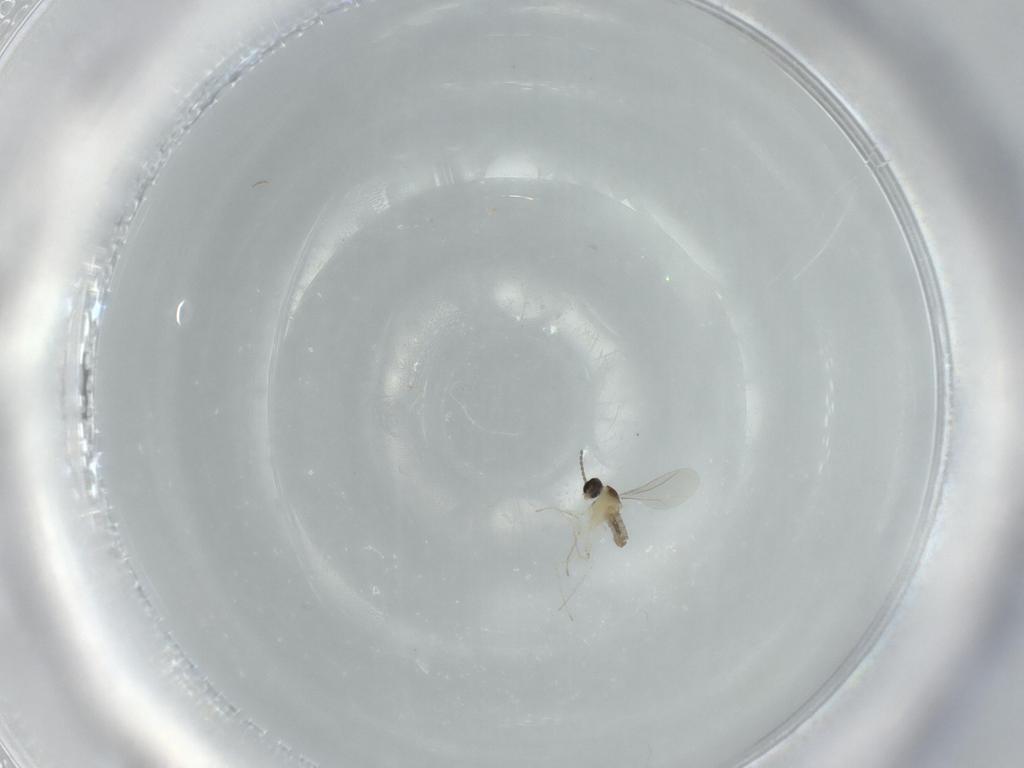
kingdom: Animalia
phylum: Arthropoda
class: Insecta
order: Diptera
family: Cecidomyiidae
